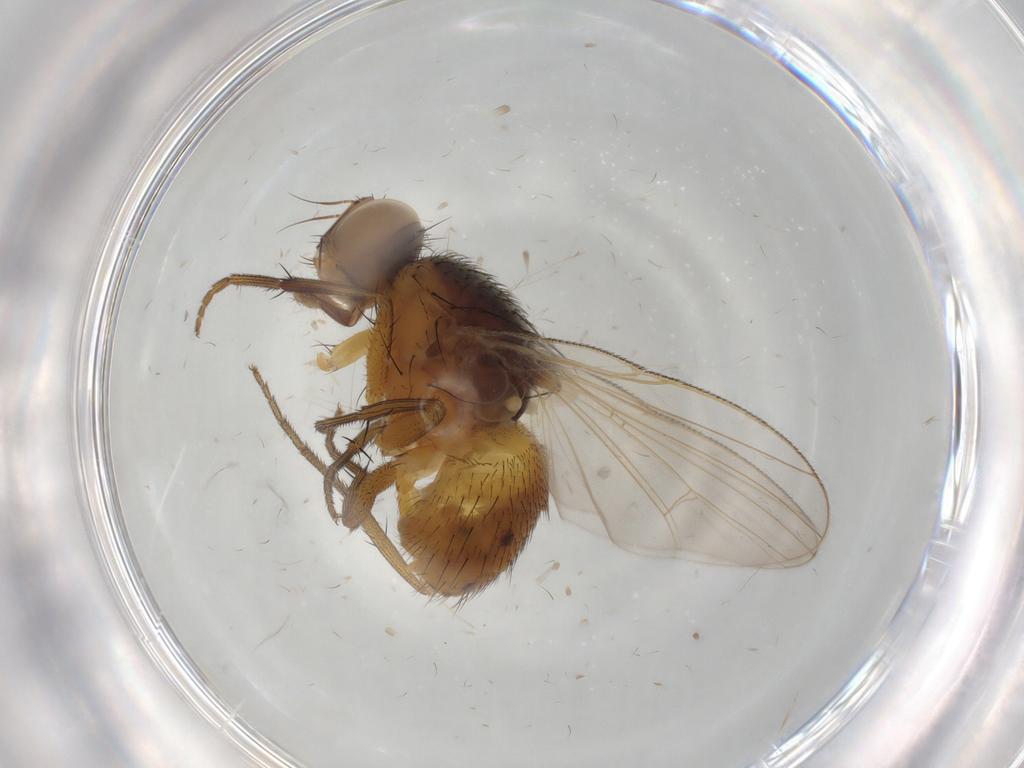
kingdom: Animalia
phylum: Arthropoda
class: Insecta
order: Diptera
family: Muscidae
